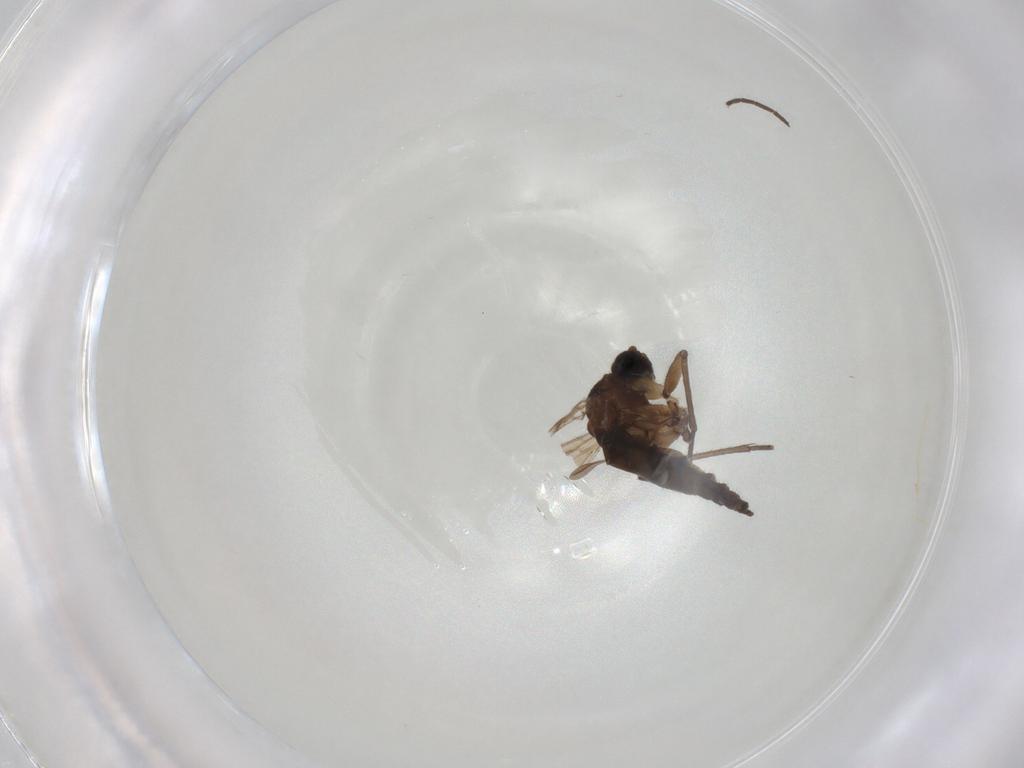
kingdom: Animalia
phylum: Arthropoda
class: Insecta
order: Diptera
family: Sciaridae
